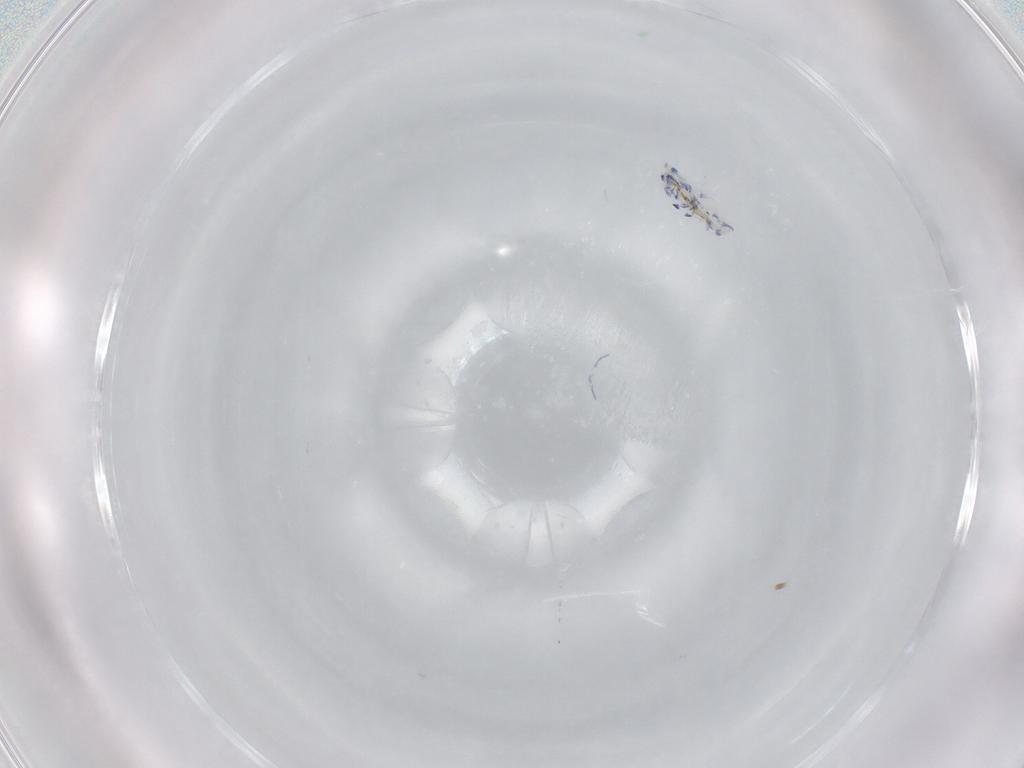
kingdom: Animalia
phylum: Arthropoda
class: Collembola
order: Entomobryomorpha
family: Entomobryidae
